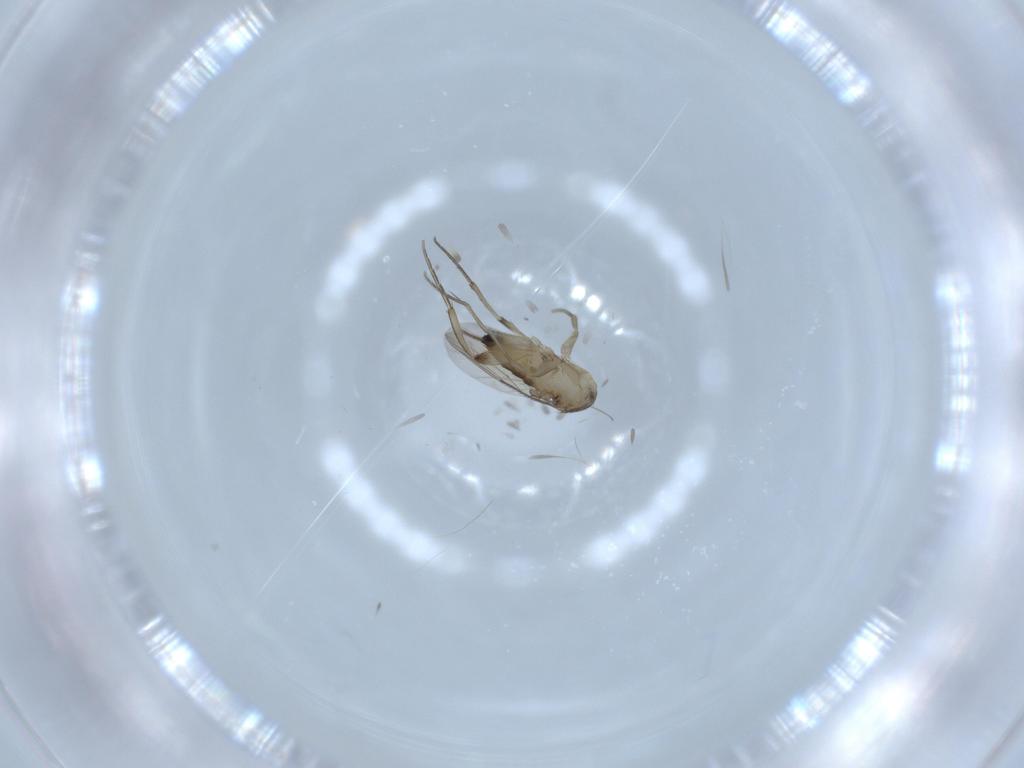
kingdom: Animalia
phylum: Arthropoda
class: Insecta
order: Diptera
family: Phoridae
